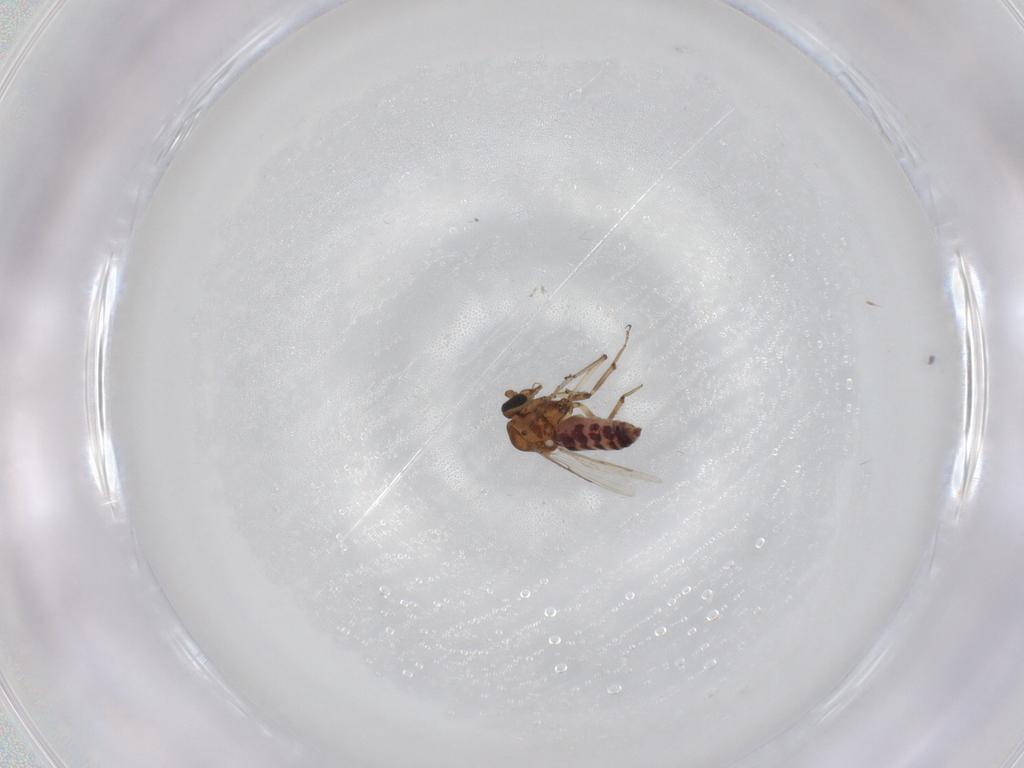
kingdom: Animalia
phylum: Arthropoda
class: Insecta
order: Diptera
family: Ceratopogonidae
